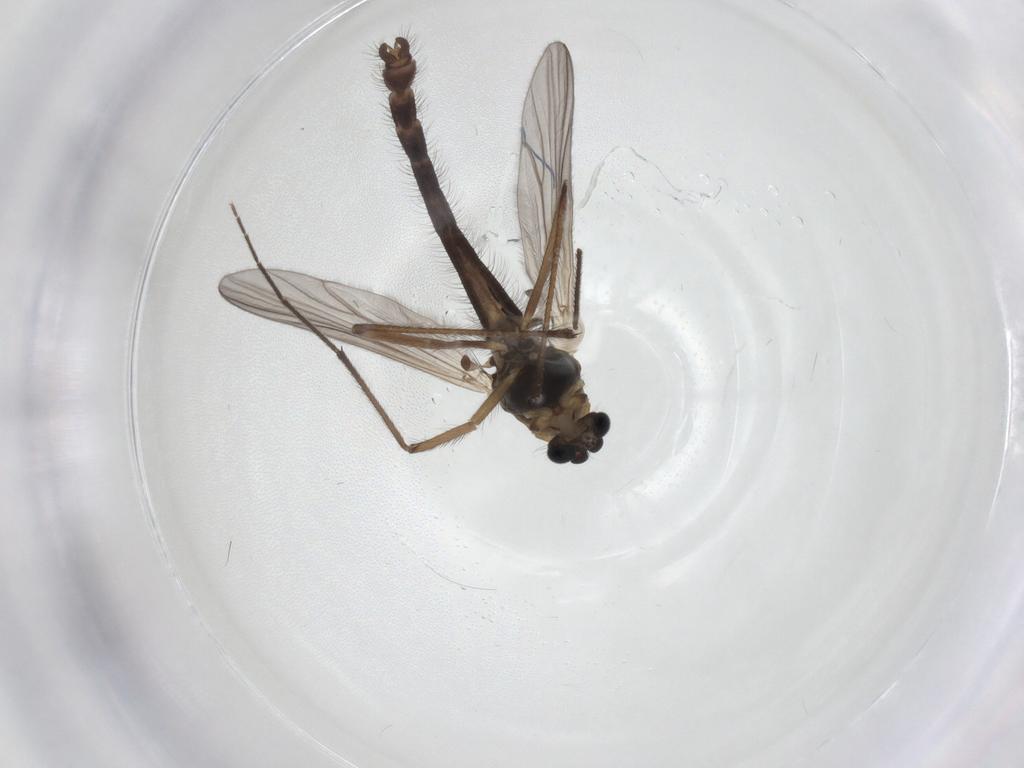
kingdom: Animalia
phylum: Arthropoda
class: Insecta
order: Diptera
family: Chironomidae
